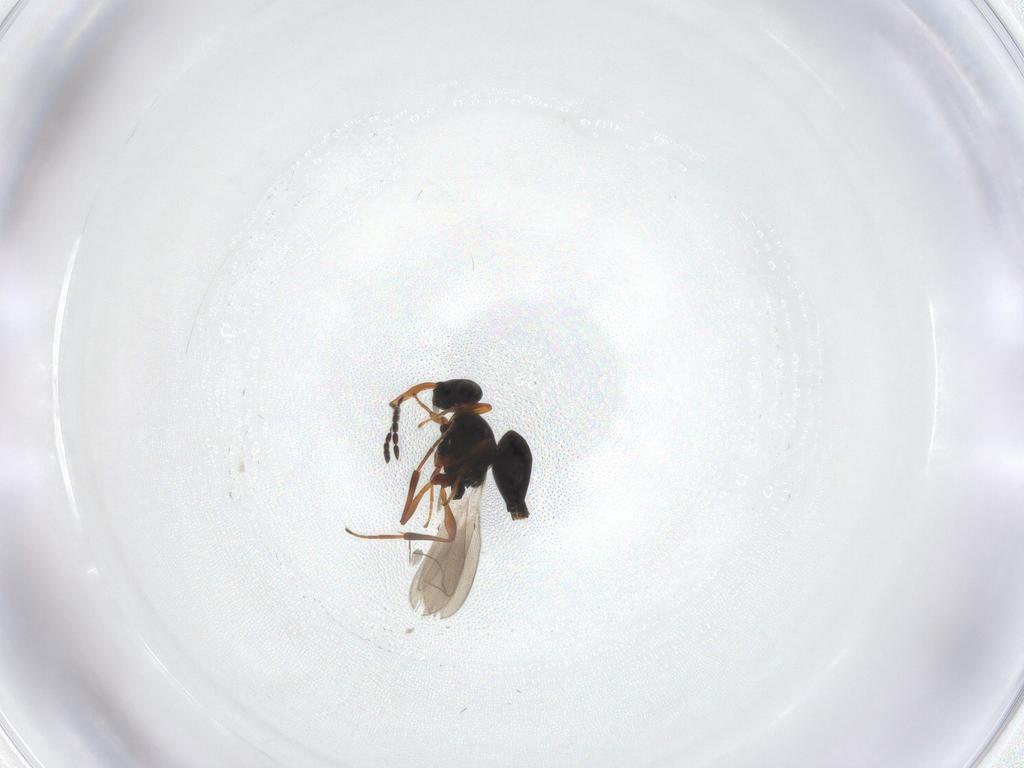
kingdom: Animalia
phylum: Arthropoda
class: Insecta
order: Hymenoptera
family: Platygastridae
